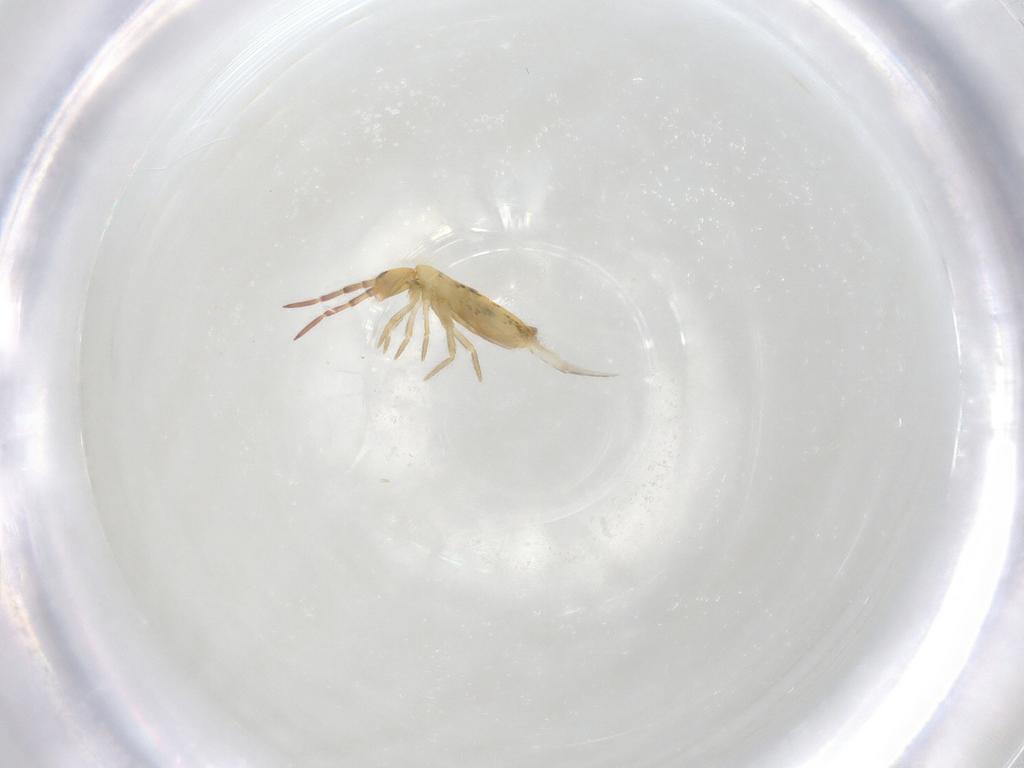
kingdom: Animalia
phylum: Arthropoda
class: Collembola
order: Entomobryomorpha
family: Entomobryidae
